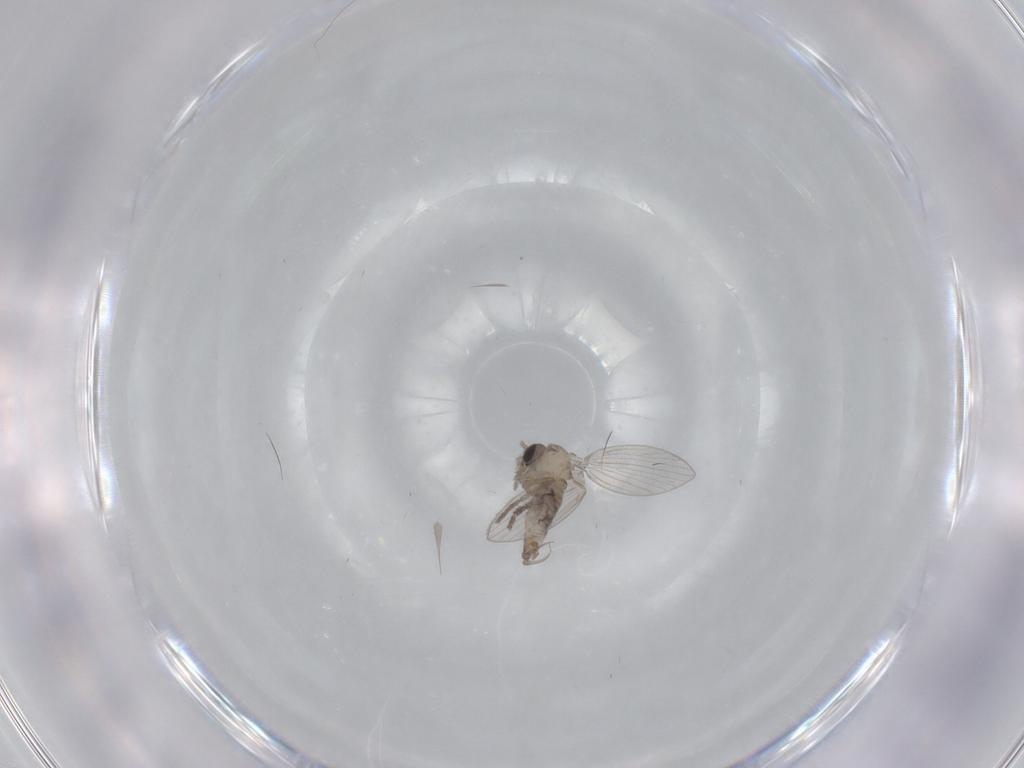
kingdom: Animalia
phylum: Arthropoda
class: Insecta
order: Diptera
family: Psychodidae
